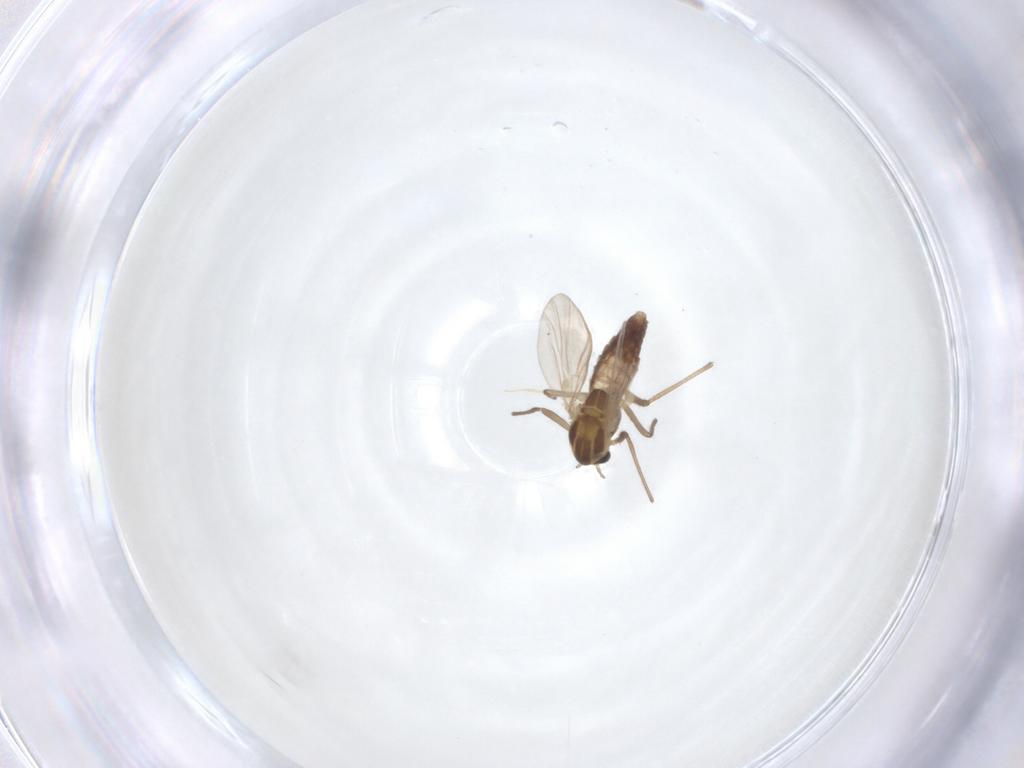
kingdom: Animalia
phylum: Arthropoda
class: Insecta
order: Diptera
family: Chironomidae
